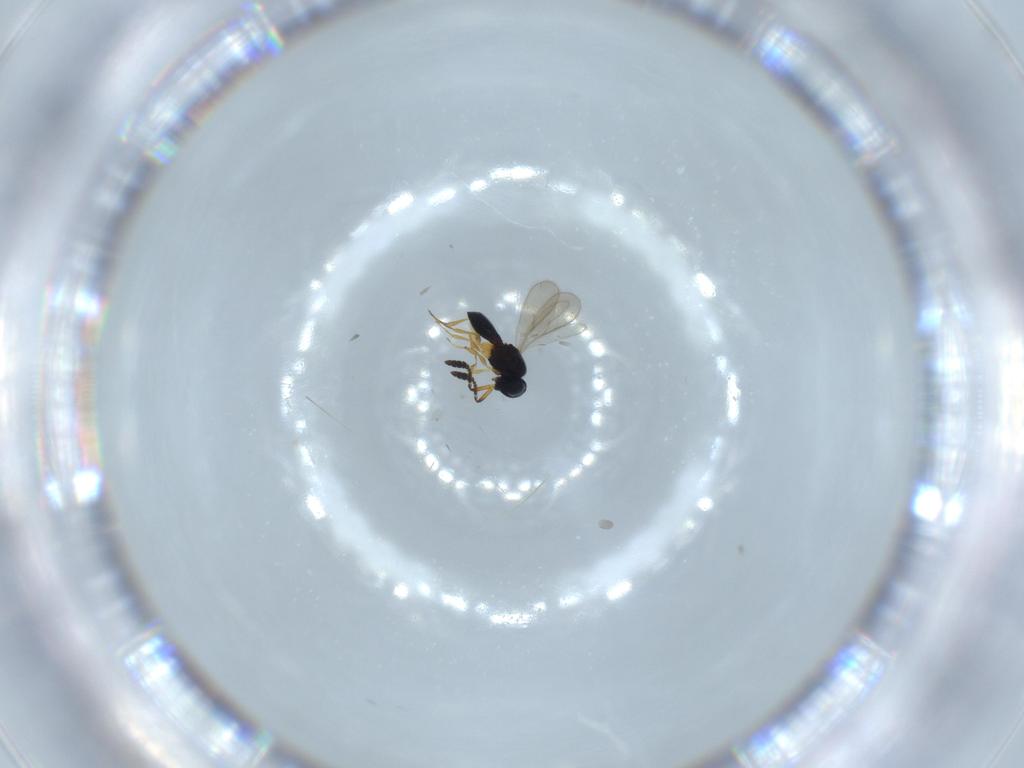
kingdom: Animalia
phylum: Arthropoda
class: Insecta
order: Hymenoptera
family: Scelionidae
